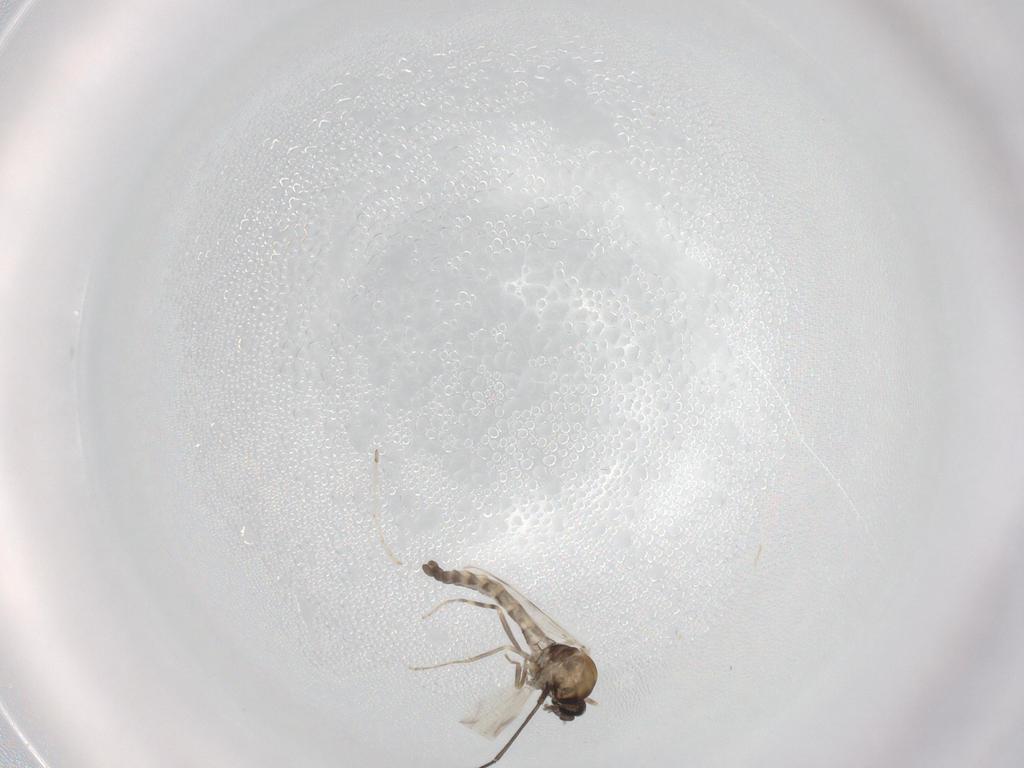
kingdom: Animalia
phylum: Arthropoda
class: Insecta
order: Diptera
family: Ceratopogonidae
